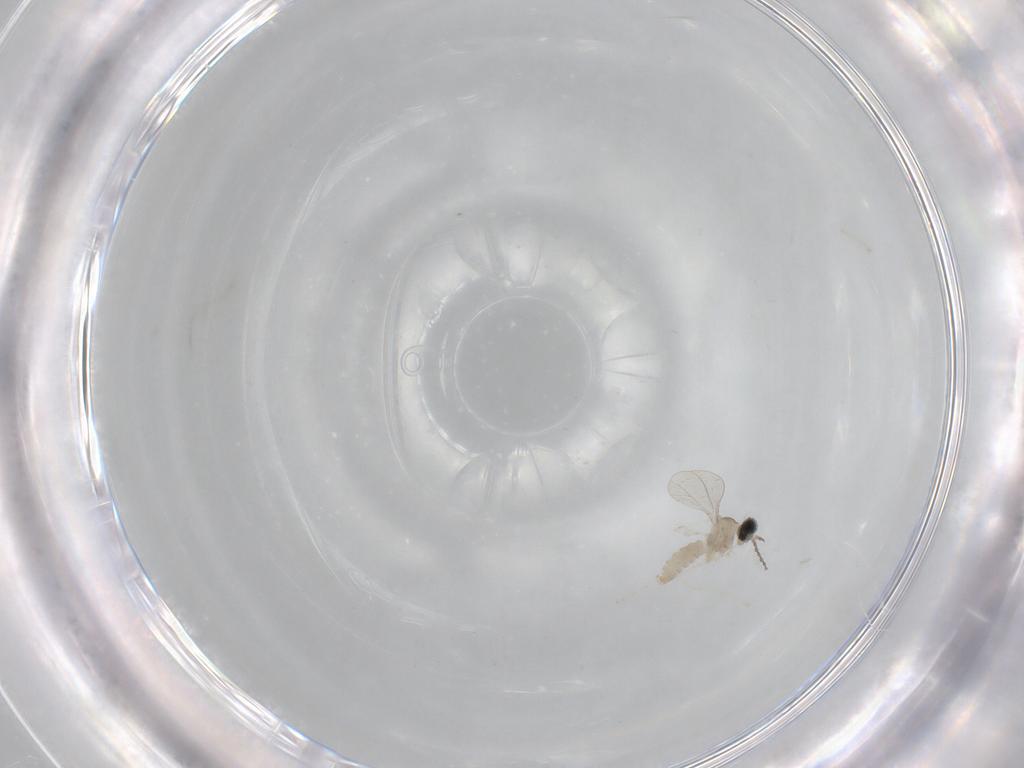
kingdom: Animalia
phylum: Arthropoda
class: Insecta
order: Diptera
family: Cecidomyiidae
